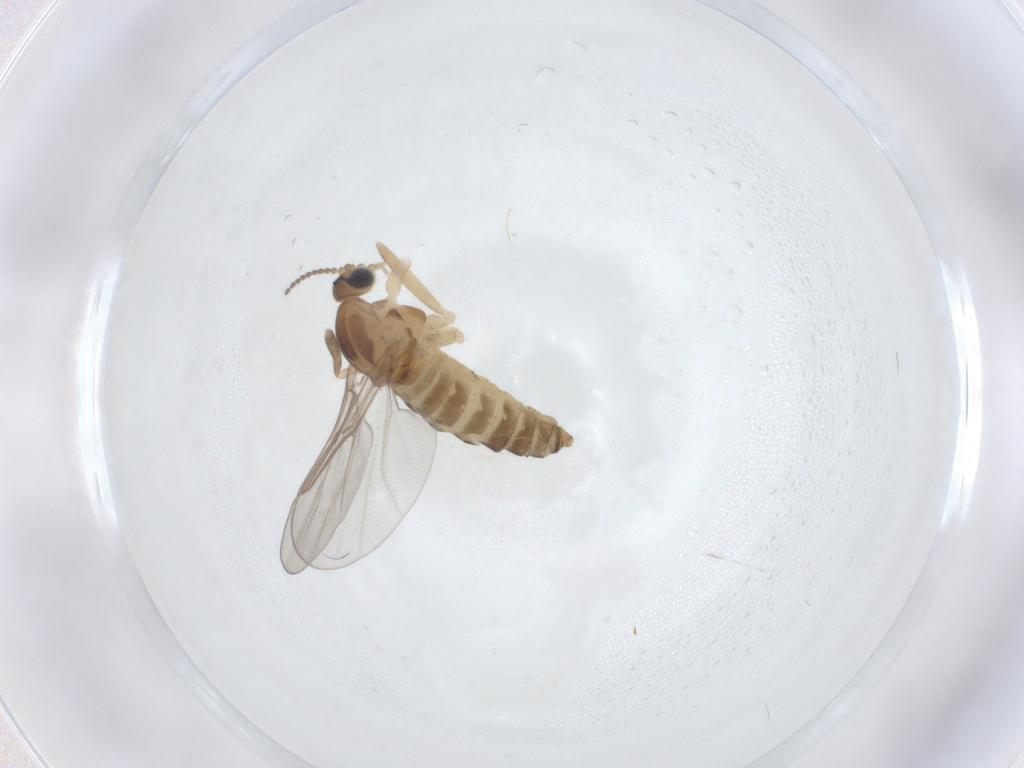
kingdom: Animalia
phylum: Arthropoda
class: Insecta
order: Diptera
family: Cecidomyiidae
